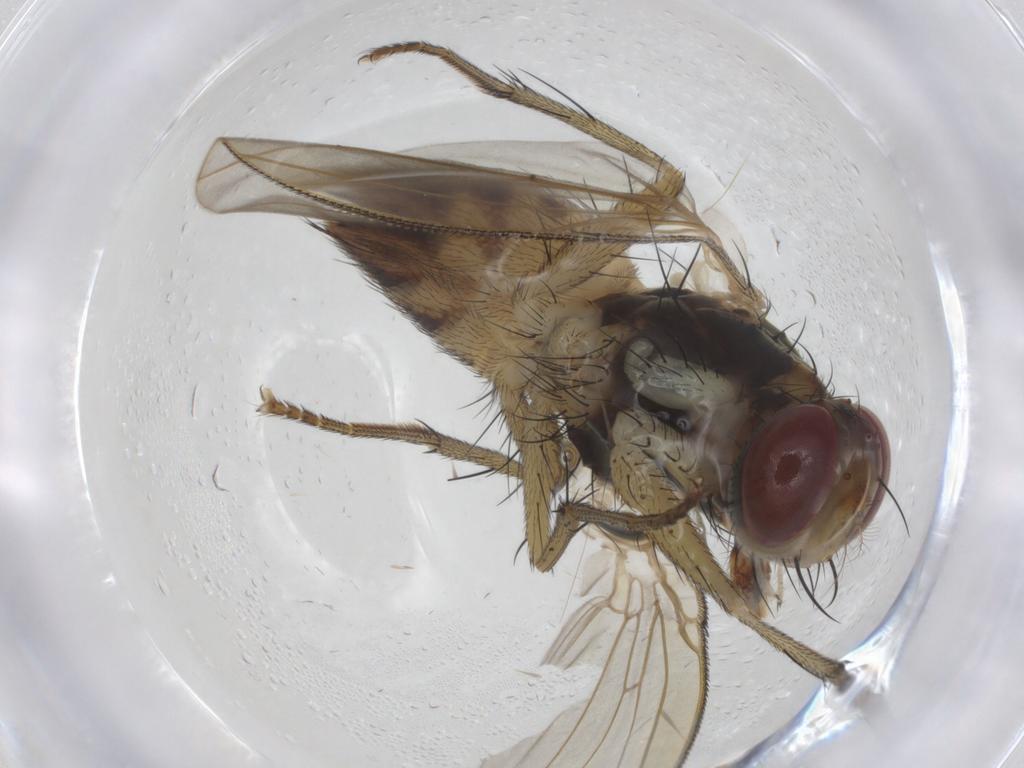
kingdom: Animalia
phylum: Arthropoda
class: Insecta
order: Diptera
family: Muscidae
